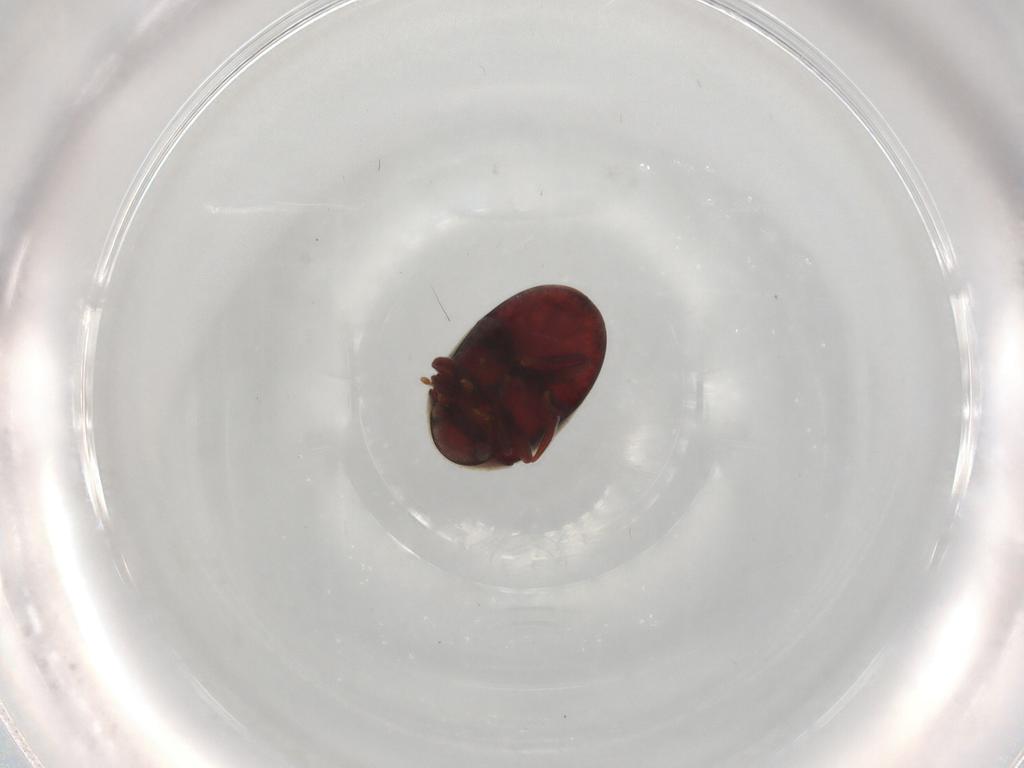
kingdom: Animalia
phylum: Arthropoda
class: Insecta
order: Coleoptera
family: Ptinidae
